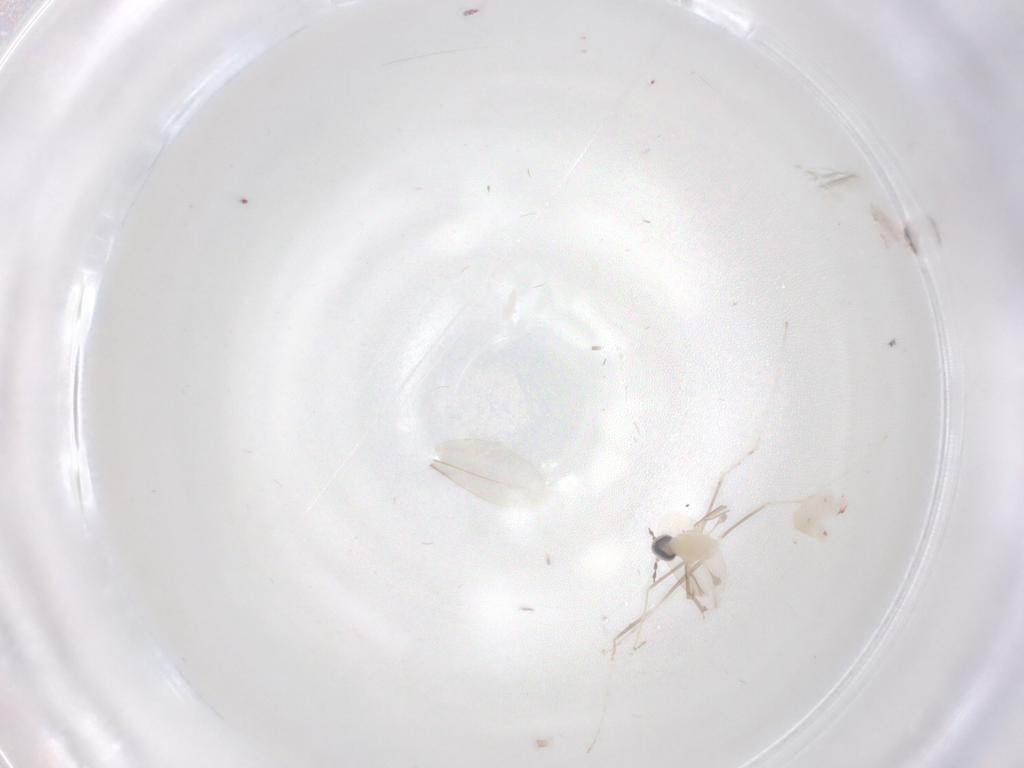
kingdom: Animalia
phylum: Arthropoda
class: Insecta
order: Diptera
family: Cecidomyiidae
